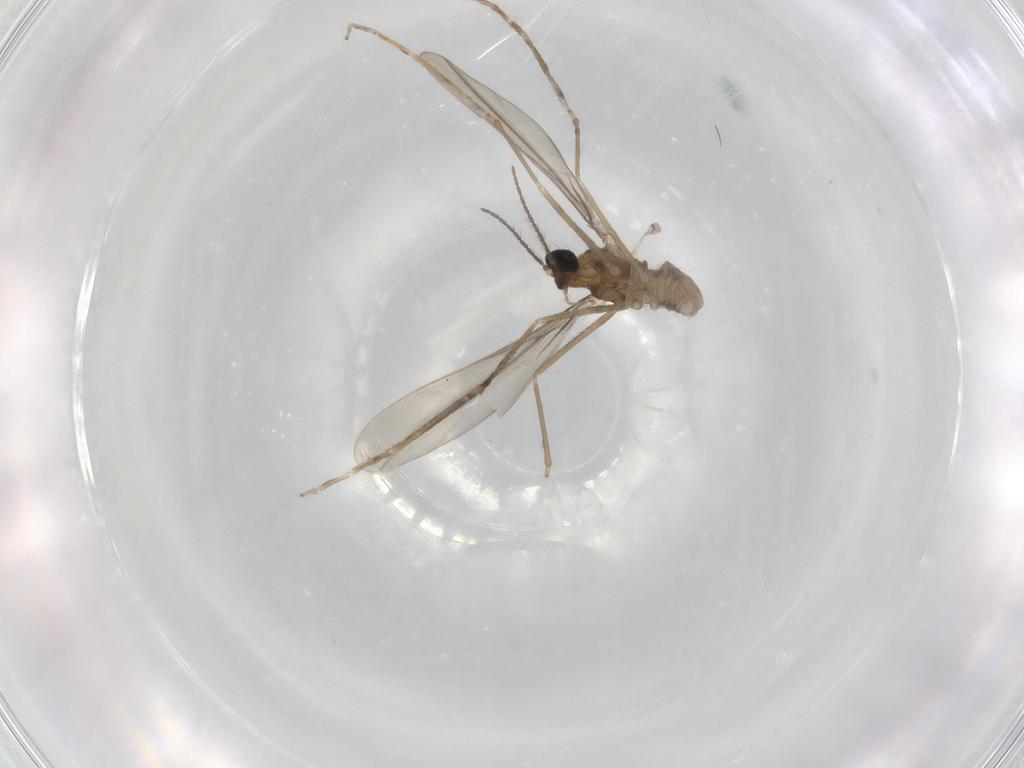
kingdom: Animalia
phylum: Arthropoda
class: Insecta
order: Diptera
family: Cecidomyiidae
